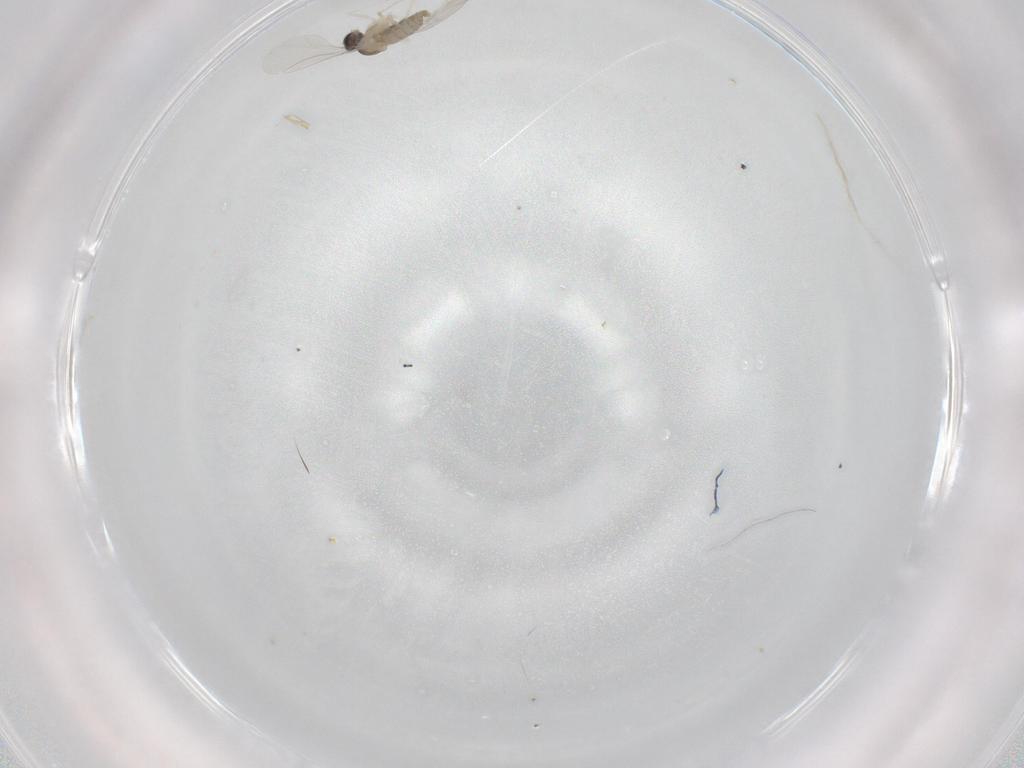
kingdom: Animalia
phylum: Arthropoda
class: Insecta
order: Diptera
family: Cecidomyiidae
